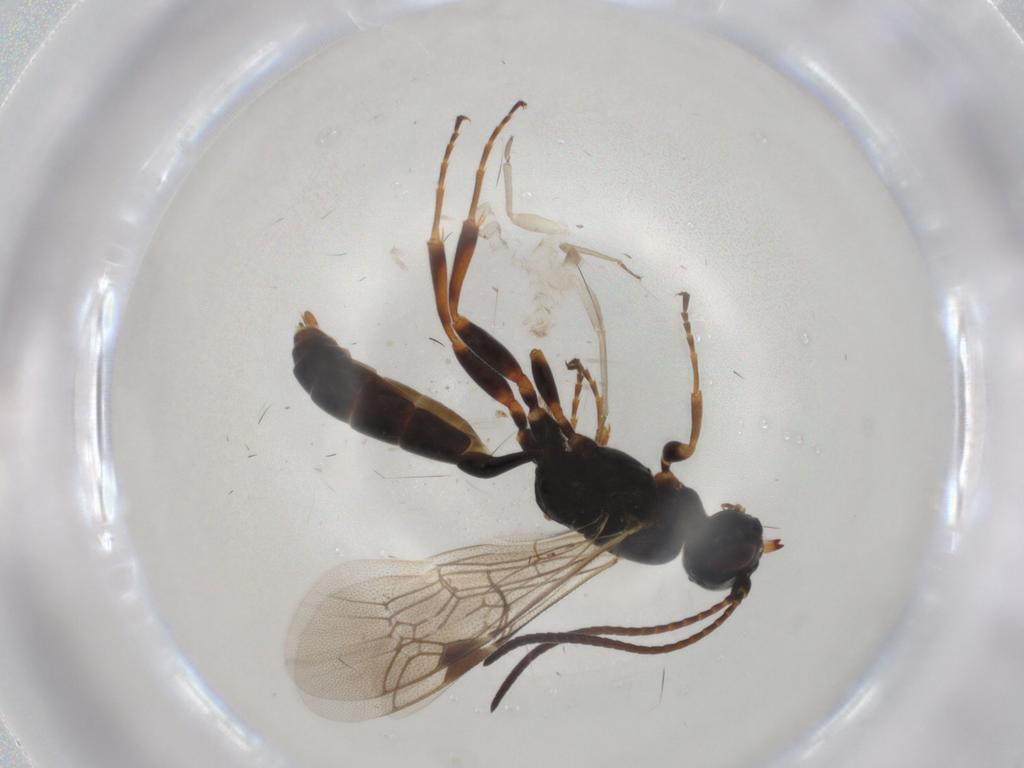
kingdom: Animalia
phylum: Arthropoda
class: Insecta
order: Hymenoptera
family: Ichneumonidae
